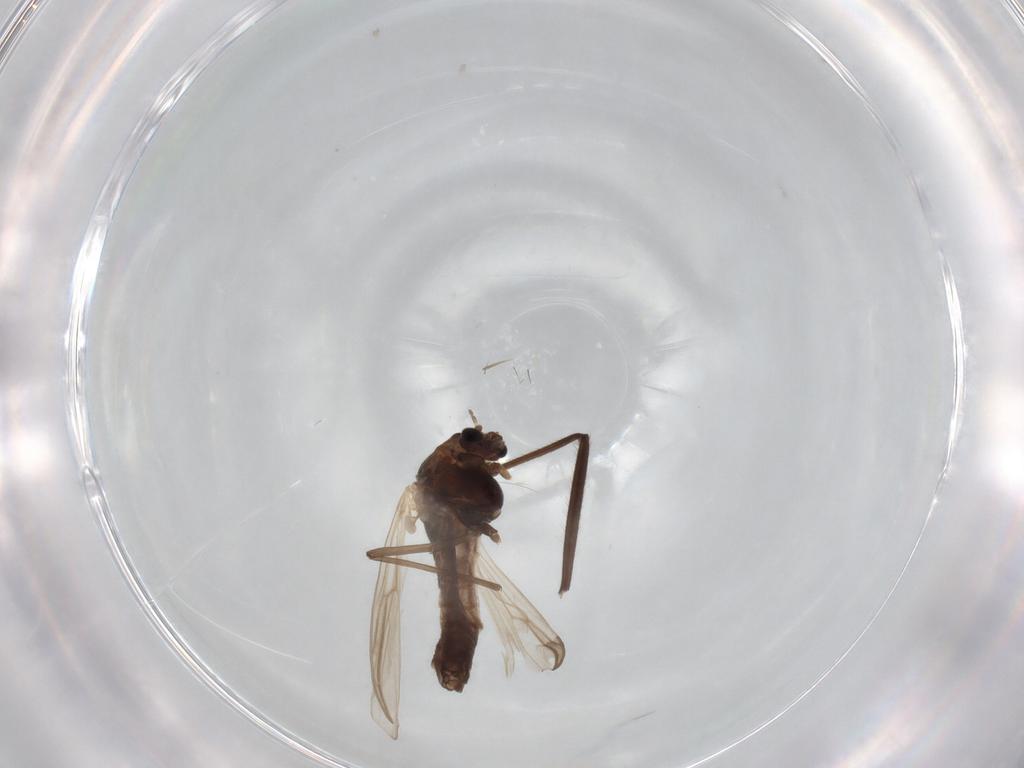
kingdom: Animalia
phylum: Arthropoda
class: Insecta
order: Diptera
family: Chironomidae
